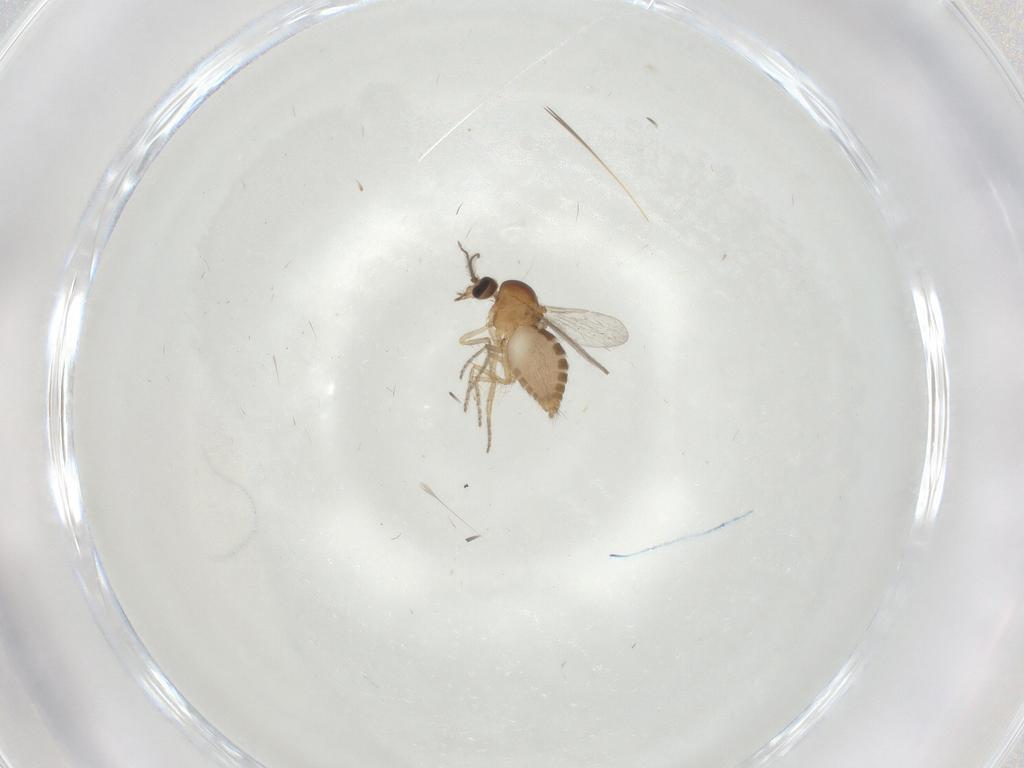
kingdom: Animalia
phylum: Arthropoda
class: Insecta
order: Diptera
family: Ceratopogonidae
